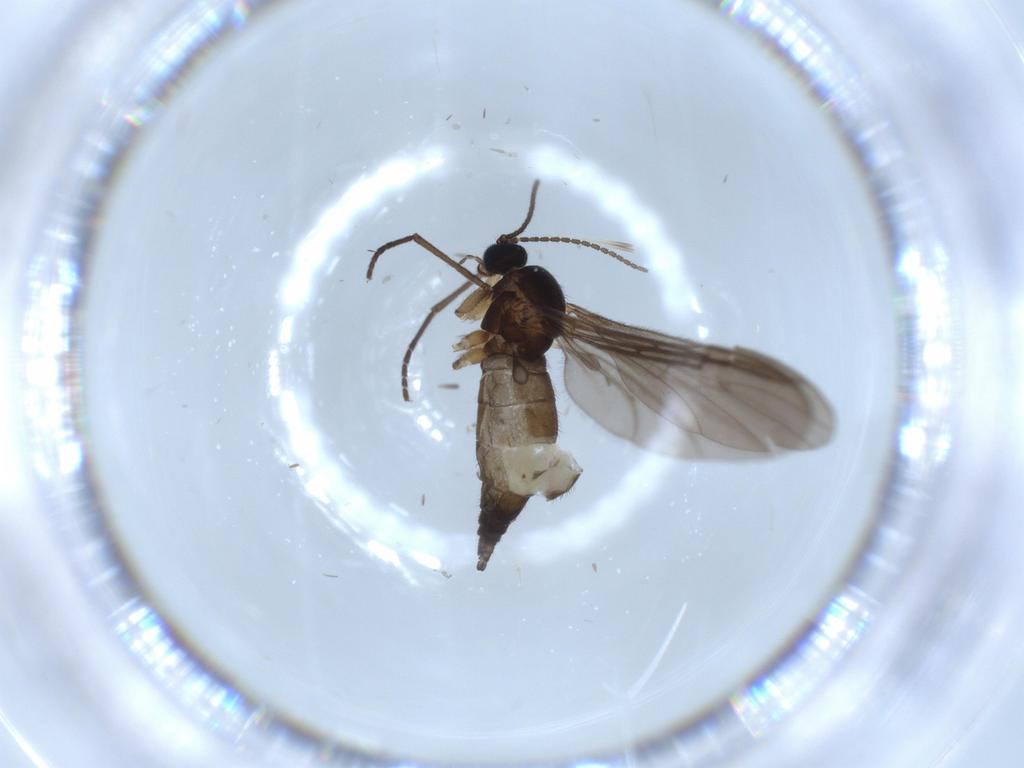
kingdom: Animalia
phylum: Arthropoda
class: Insecta
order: Diptera
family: Sciaridae
